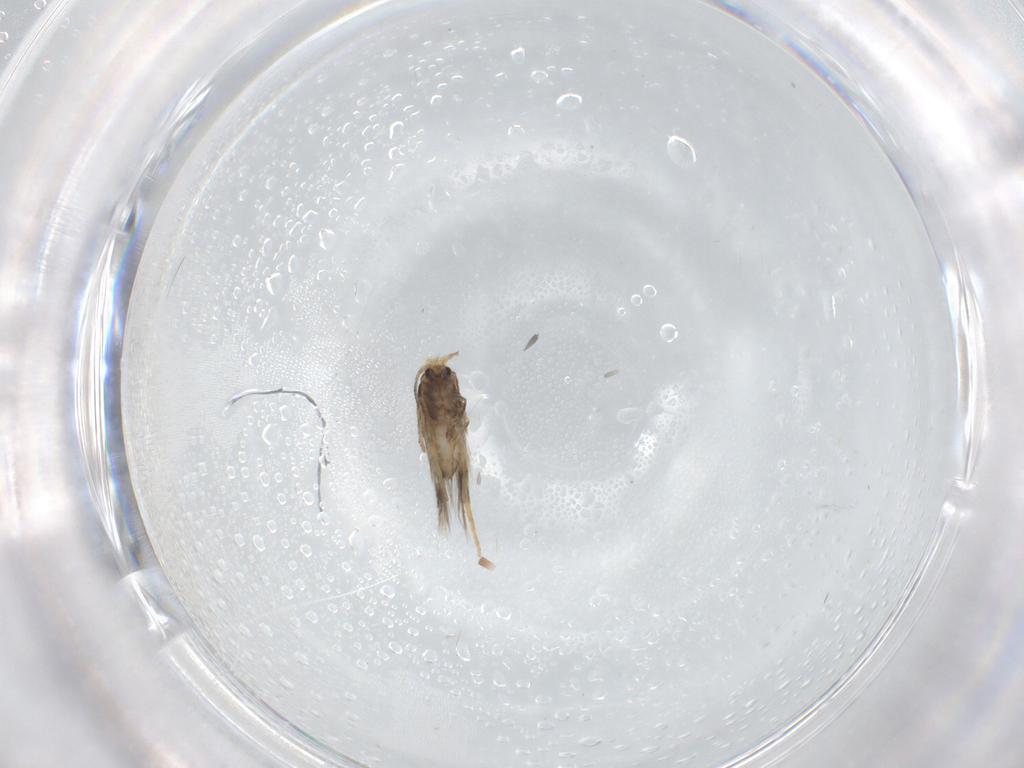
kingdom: Animalia
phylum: Arthropoda
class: Insecta
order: Lepidoptera
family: Nepticulidae
